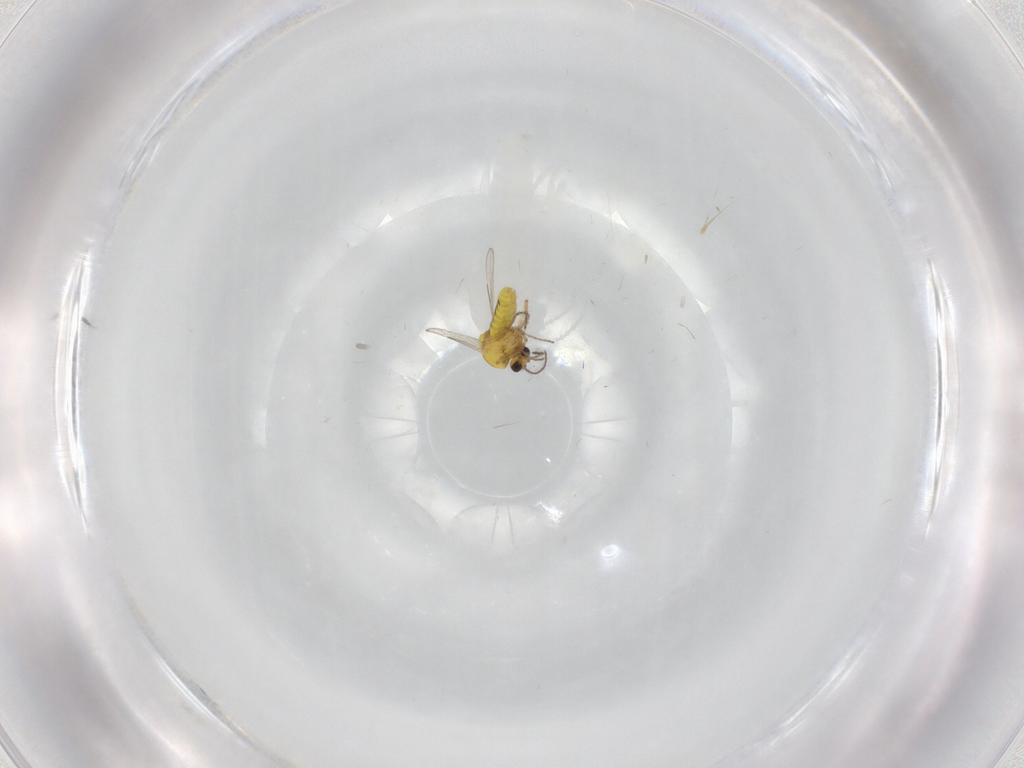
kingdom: Animalia
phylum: Arthropoda
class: Insecta
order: Diptera
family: Ceratopogonidae
